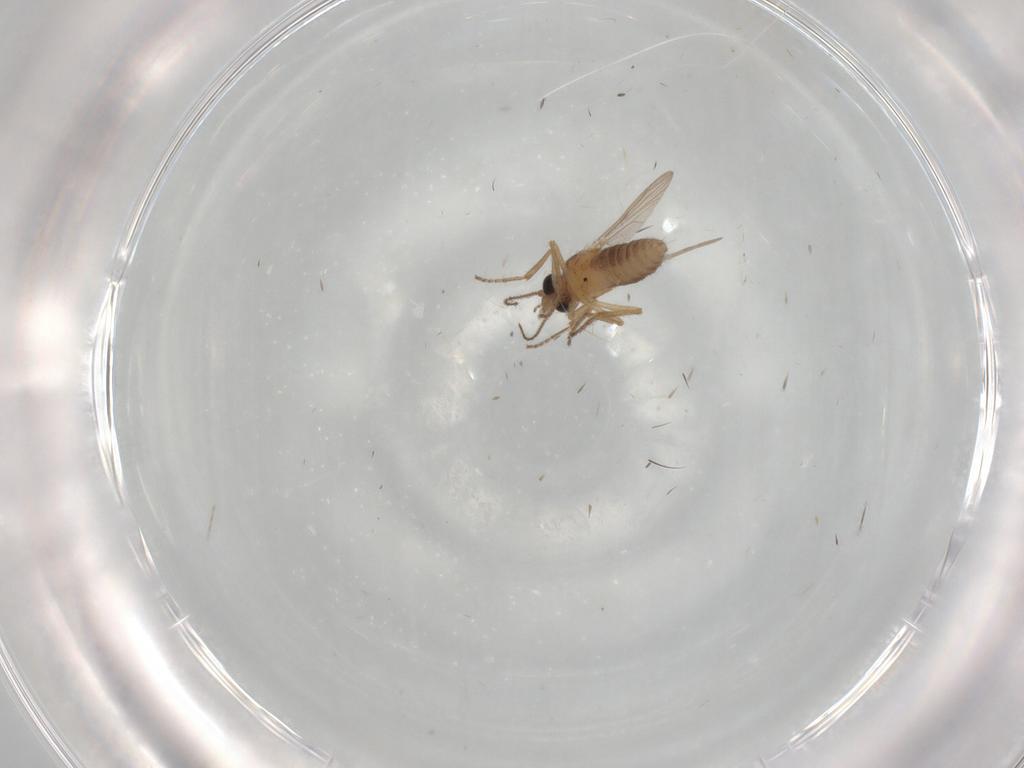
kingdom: Animalia
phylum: Arthropoda
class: Insecta
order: Diptera
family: Ceratopogonidae
